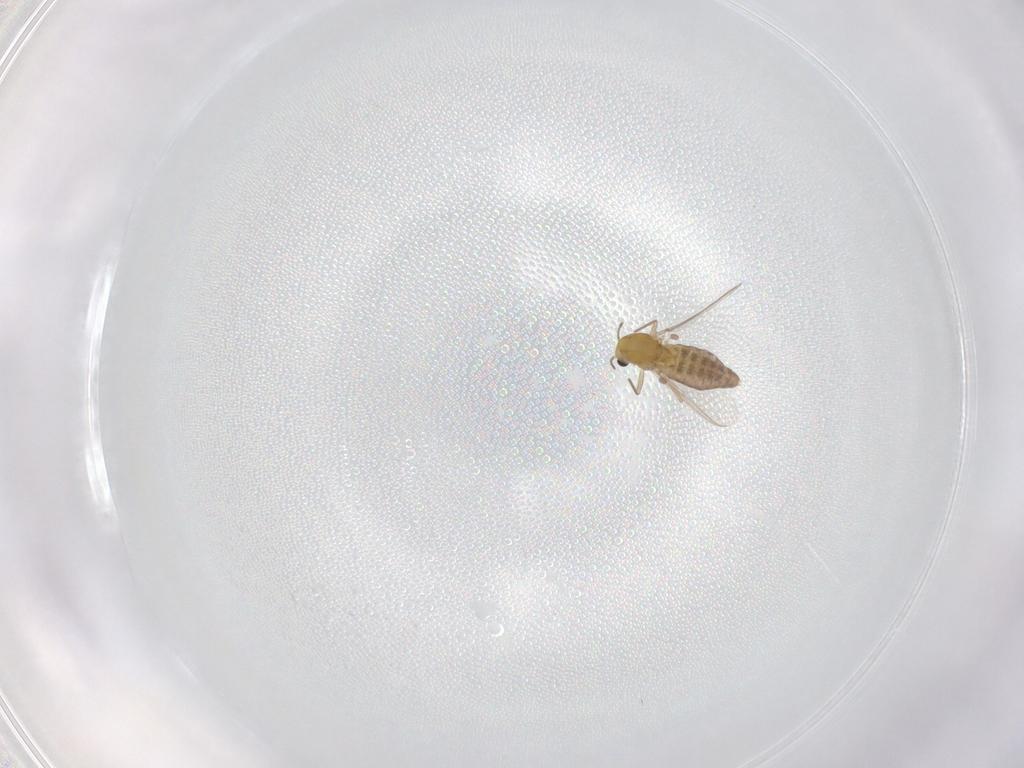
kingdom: Animalia
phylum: Arthropoda
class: Insecta
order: Diptera
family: Chironomidae
